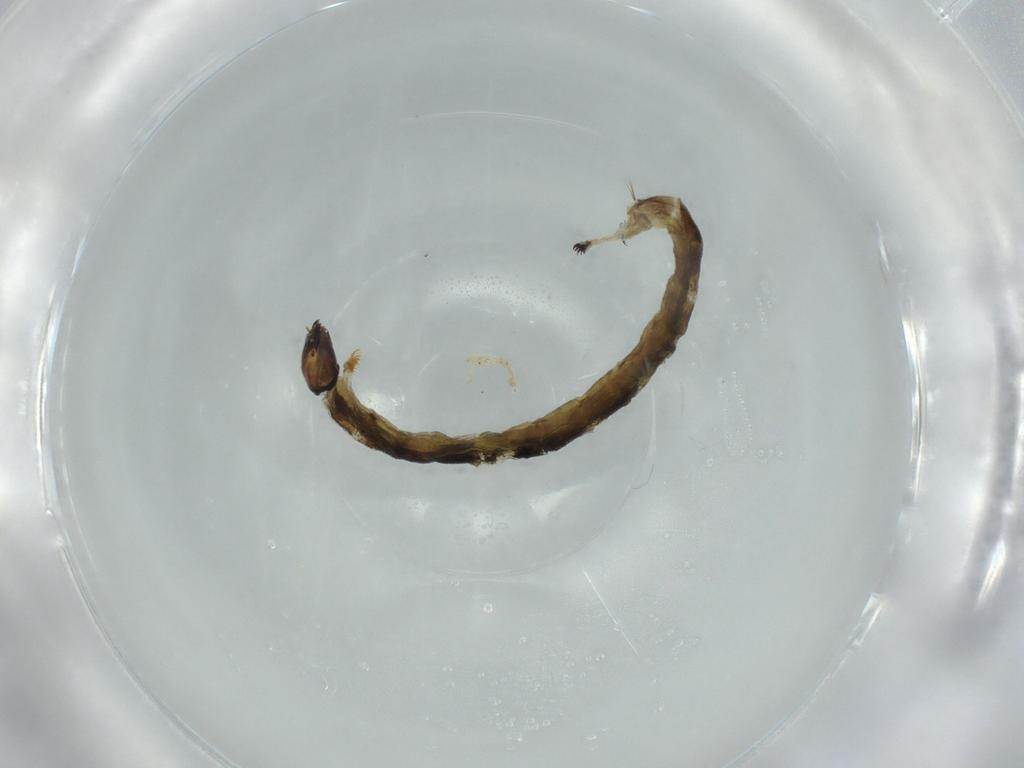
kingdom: Animalia
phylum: Arthropoda
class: Insecta
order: Diptera
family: Chironomidae
